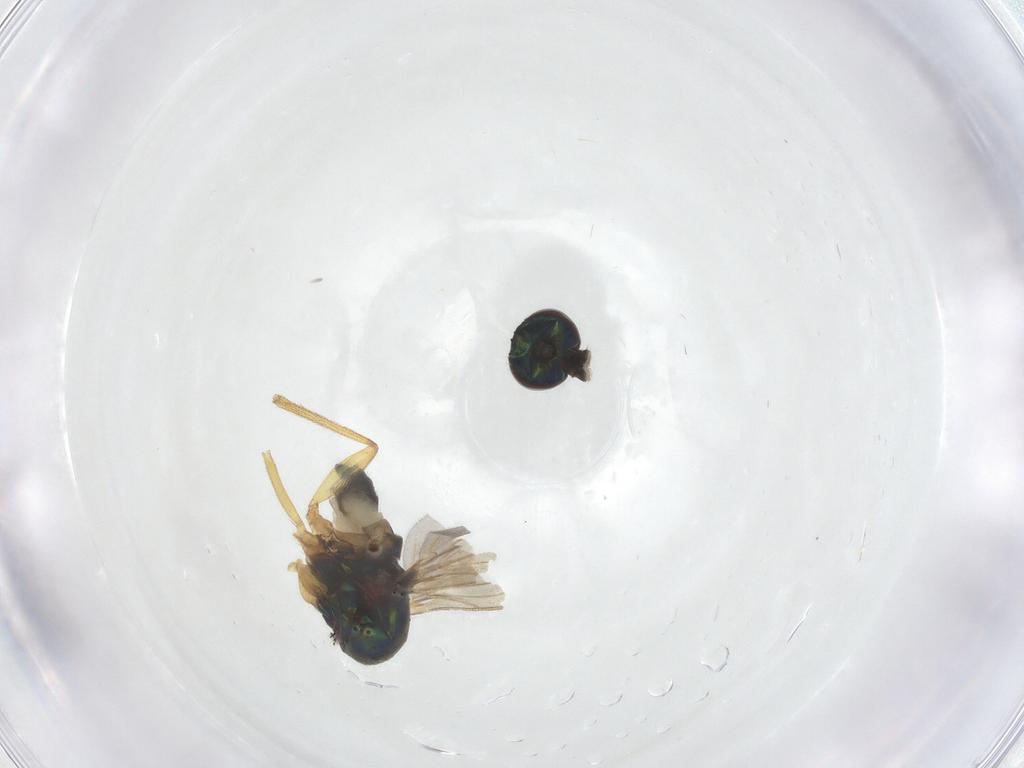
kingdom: Animalia
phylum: Arthropoda
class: Insecta
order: Diptera
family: Dolichopodidae
